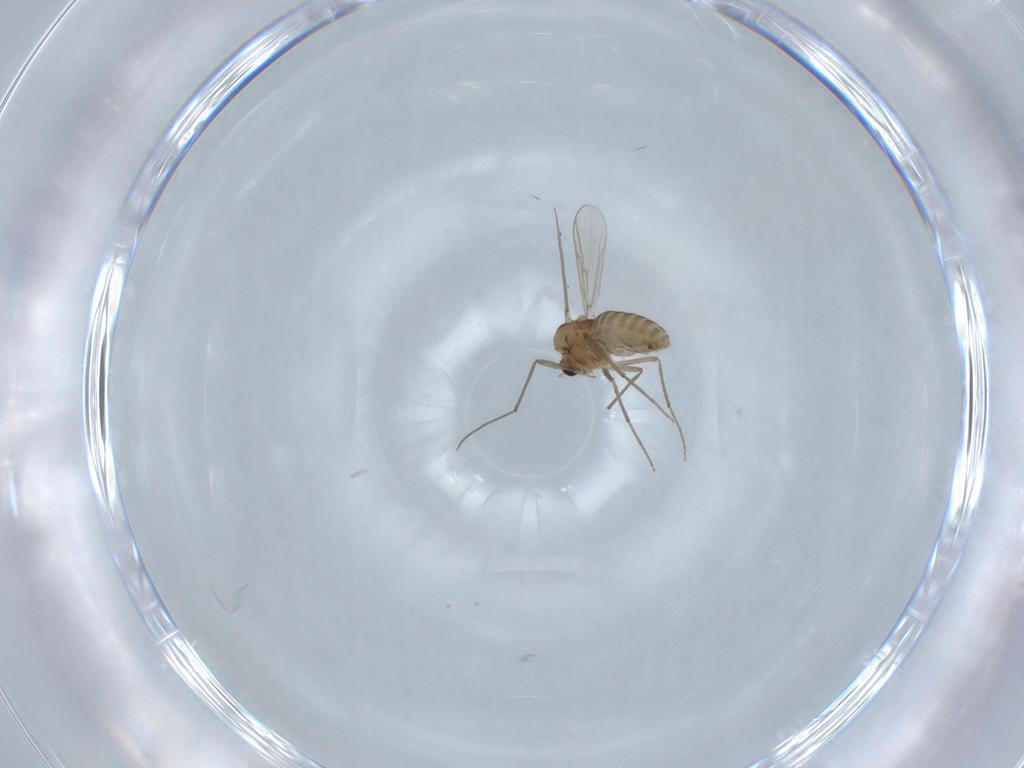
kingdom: Animalia
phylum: Arthropoda
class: Insecta
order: Diptera
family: Chironomidae
